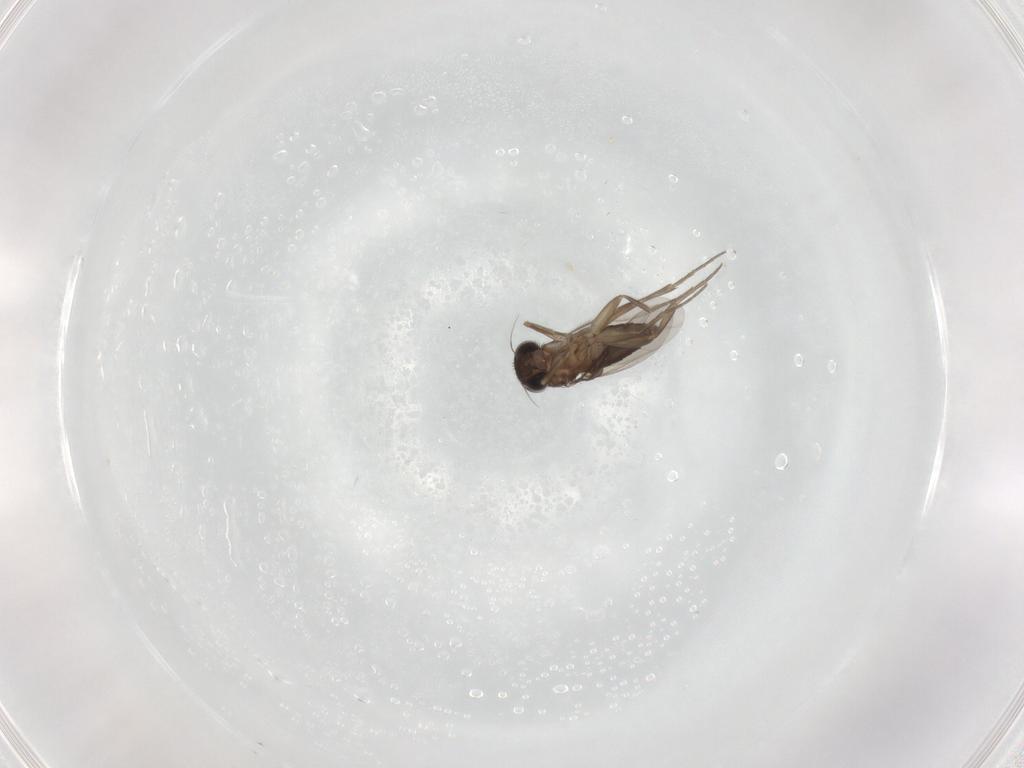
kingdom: Animalia
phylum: Arthropoda
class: Insecta
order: Diptera
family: Phoridae
